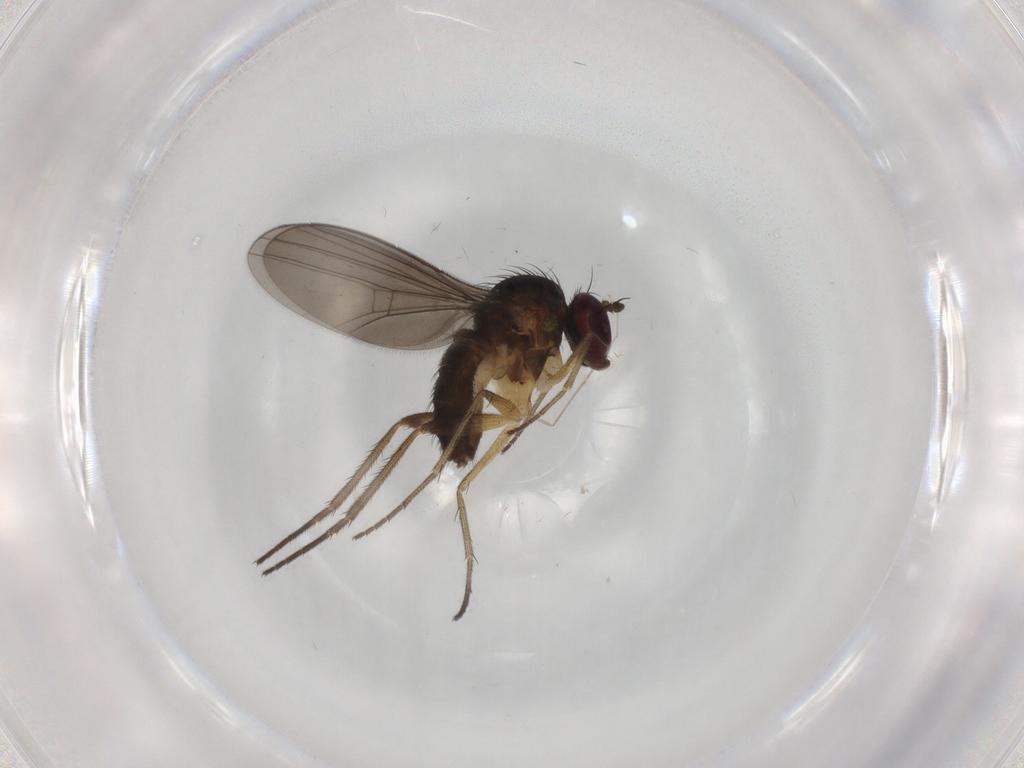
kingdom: Animalia
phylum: Arthropoda
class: Insecta
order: Diptera
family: Dolichopodidae
